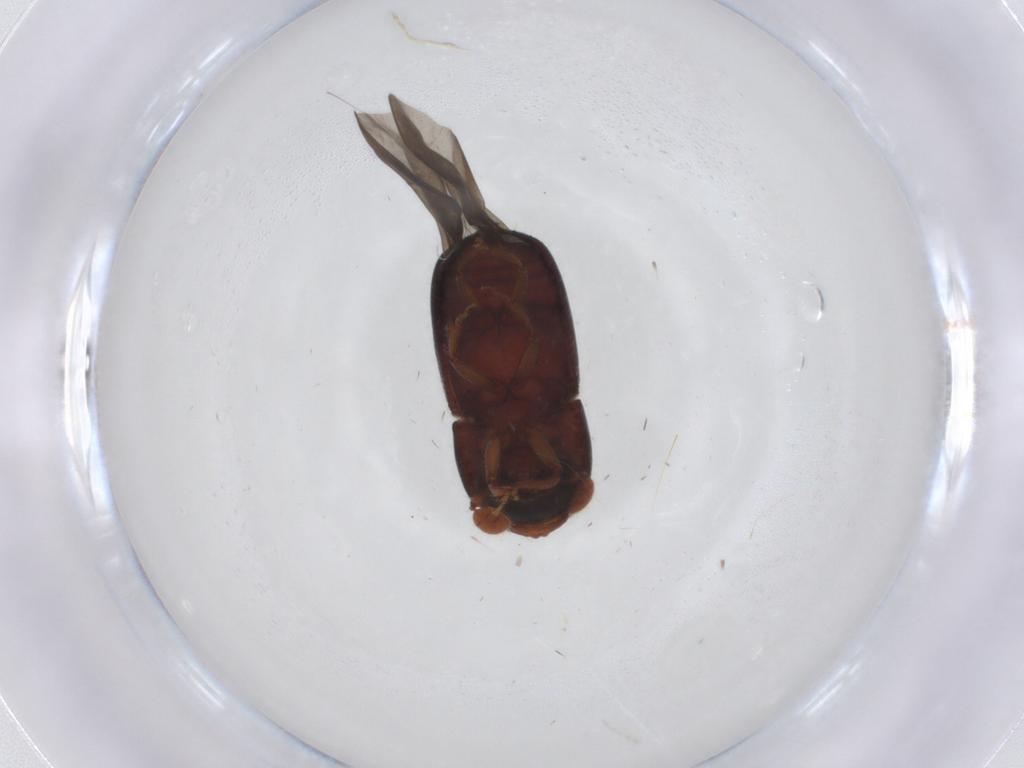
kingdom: Animalia
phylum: Arthropoda
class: Insecta
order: Coleoptera
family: Curculionidae
